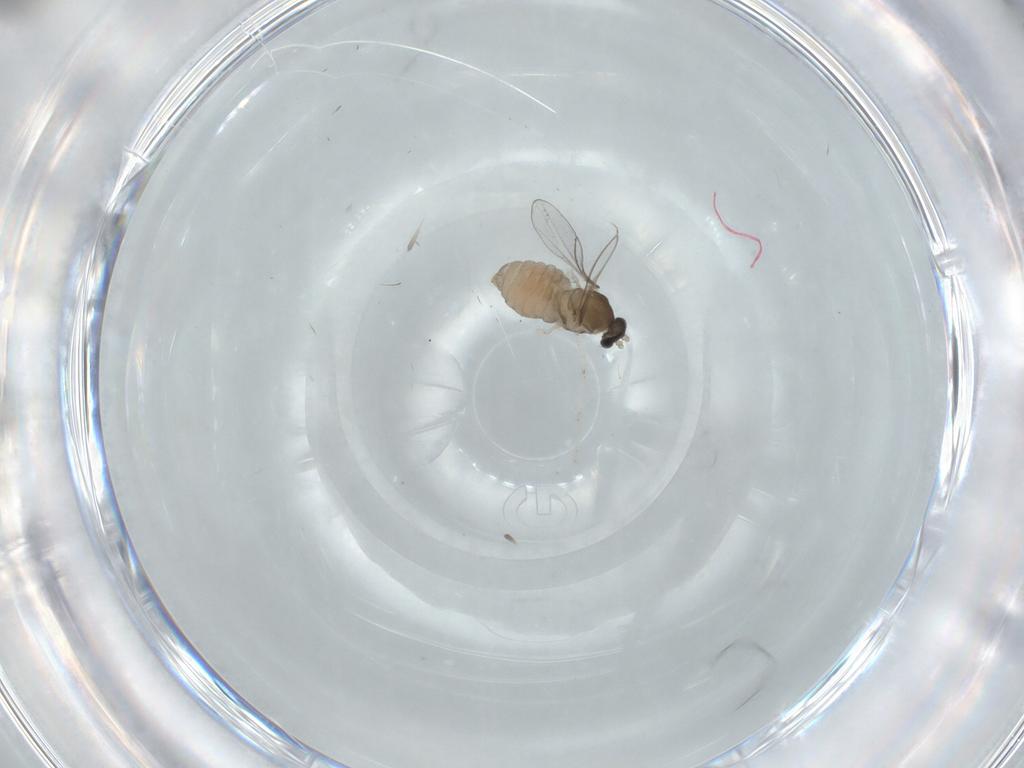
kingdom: Animalia
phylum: Arthropoda
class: Insecta
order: Diptera
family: Cecidomyiidae
